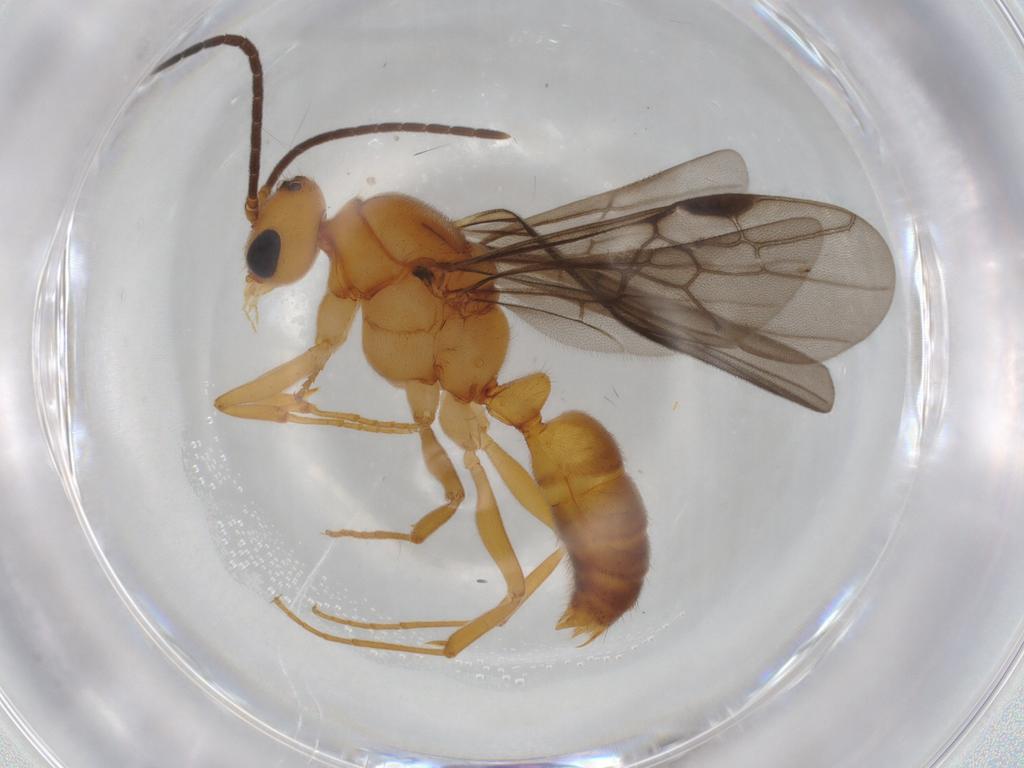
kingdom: Animalia
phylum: Arthropoda
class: Insecta
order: Hymenoptera
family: Formicidae
